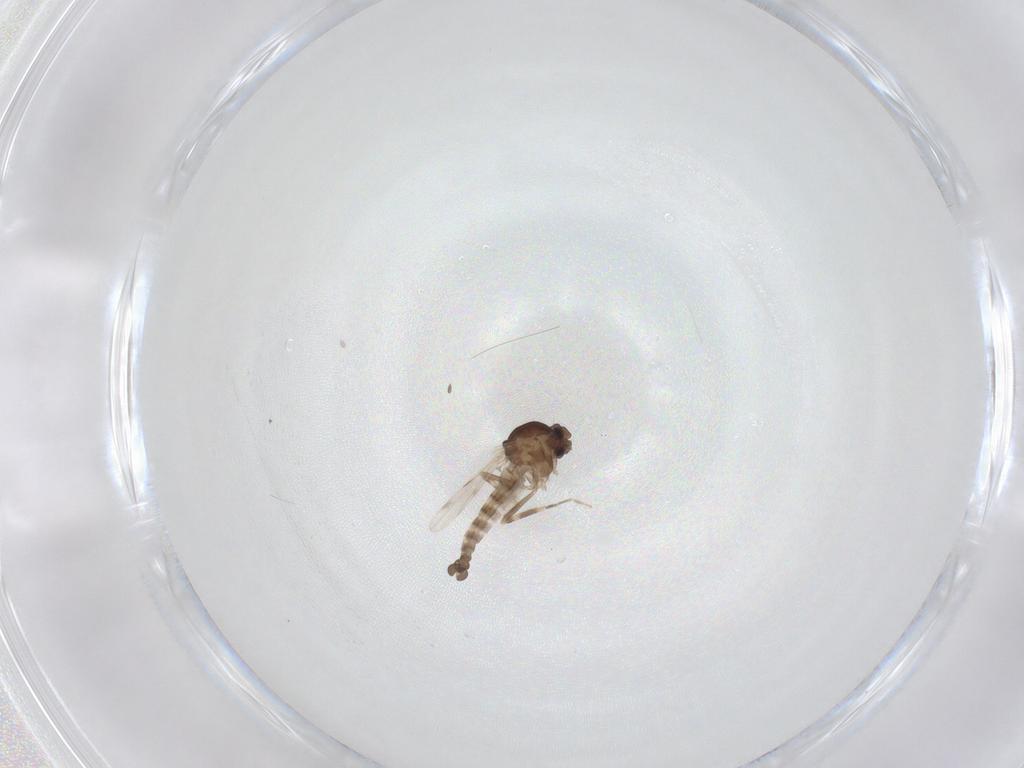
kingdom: Animalia
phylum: Arthropoda
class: Insecta
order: Diptera
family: Ceratopogonidae
